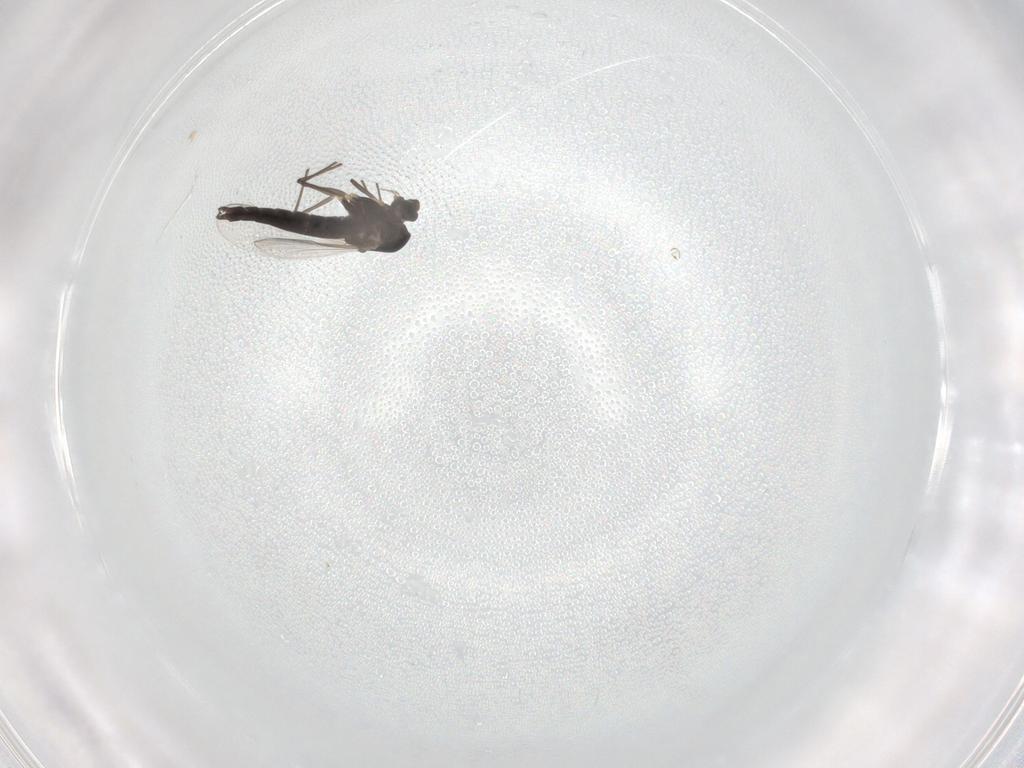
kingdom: Animalia
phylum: Arthropoda
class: Insecta
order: Diptera
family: Chironomidae
